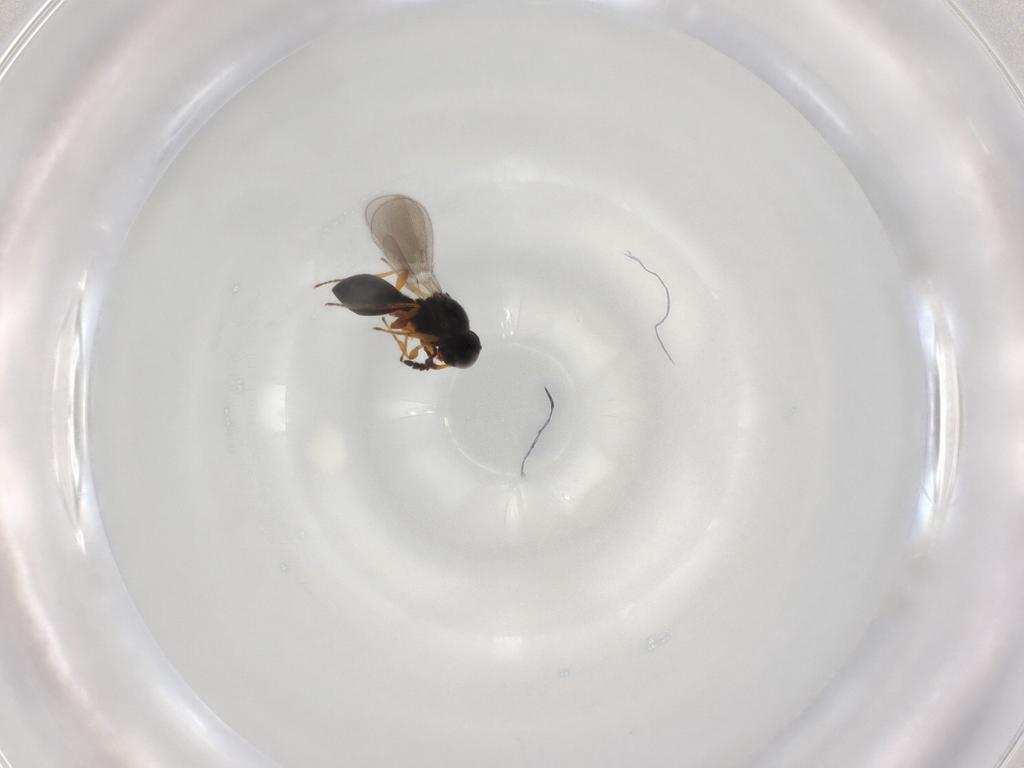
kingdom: Animalia
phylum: Arthropoda
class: Insecta
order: Hymenoptera
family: Platygastridae
